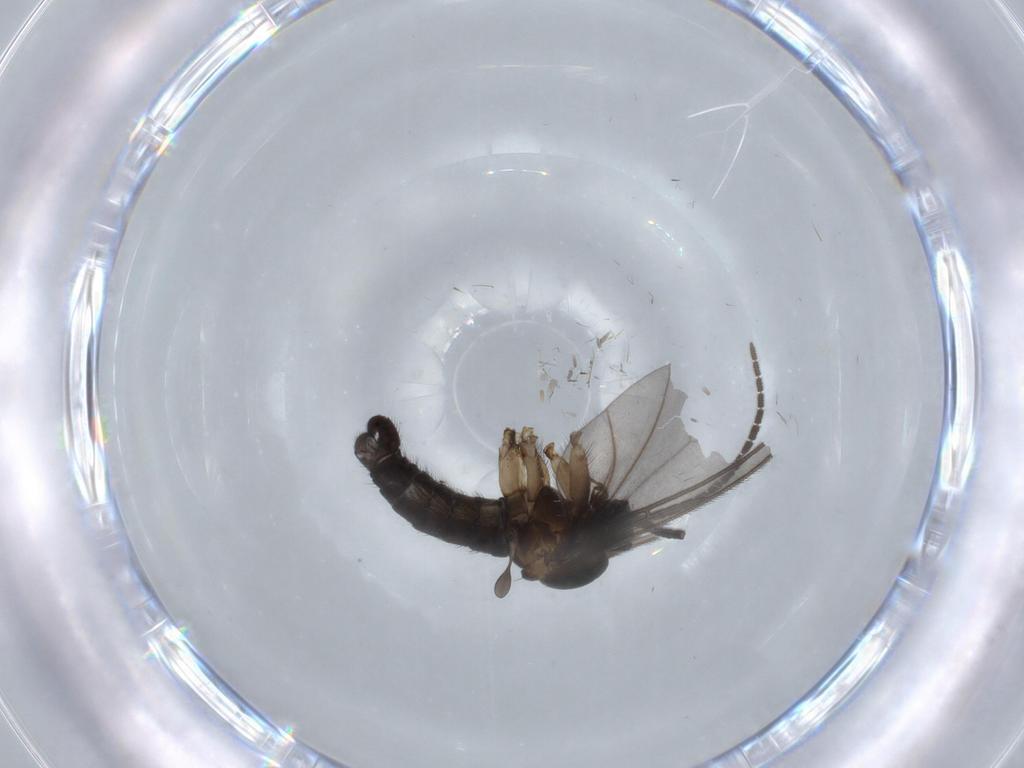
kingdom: Animalia
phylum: Arthropoda
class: Insecta
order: Diptera
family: Sciaridae
